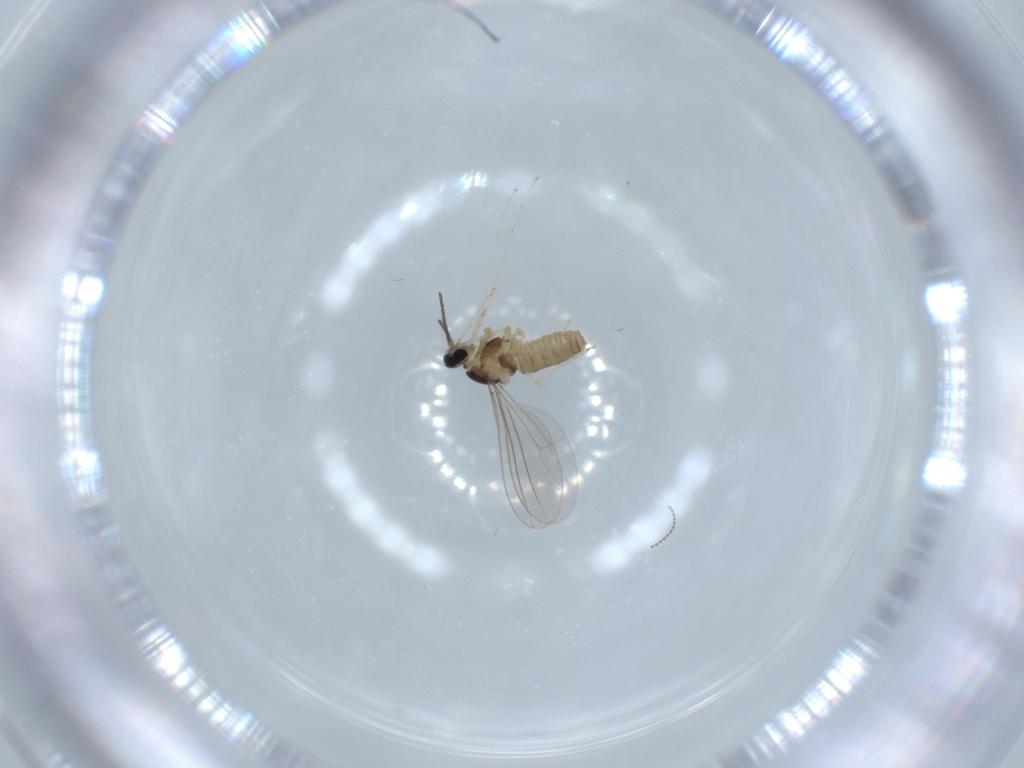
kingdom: Animalia
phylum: Arthropoda
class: Insecta
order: Diptera
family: Cecidomyiidae
